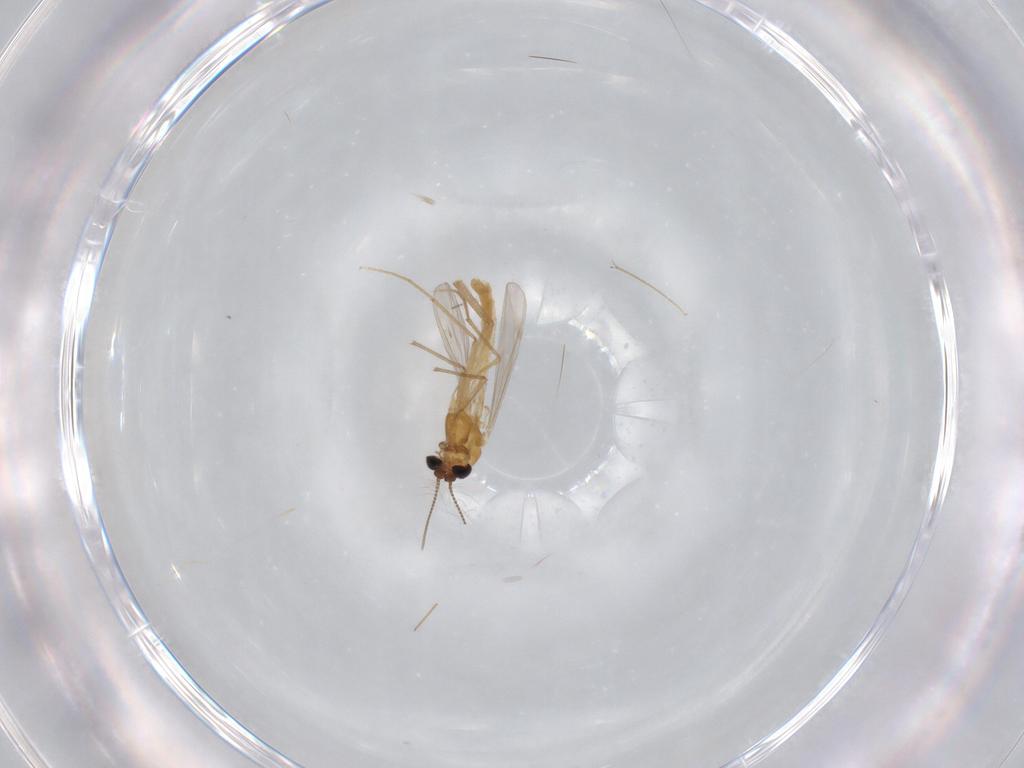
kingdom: Animalia
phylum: Arthropoda
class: Insecta
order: Diptera
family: Chironomidae
